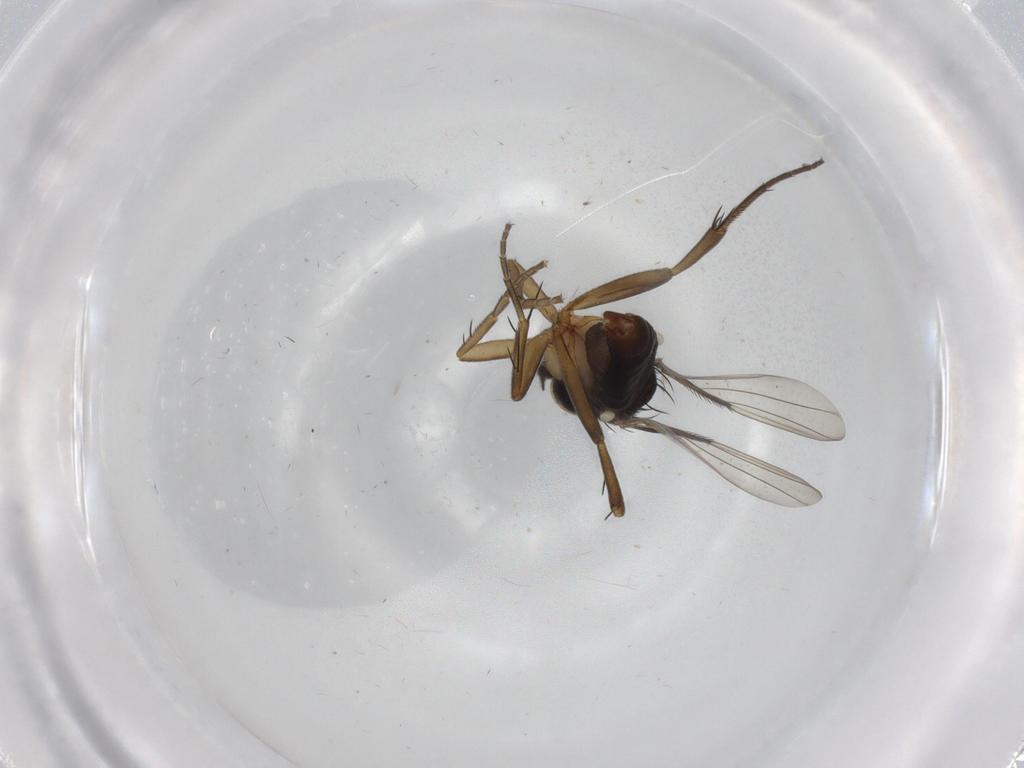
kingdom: Animalia
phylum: Arthropoda
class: Insecta
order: Diptera
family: Phoridae
